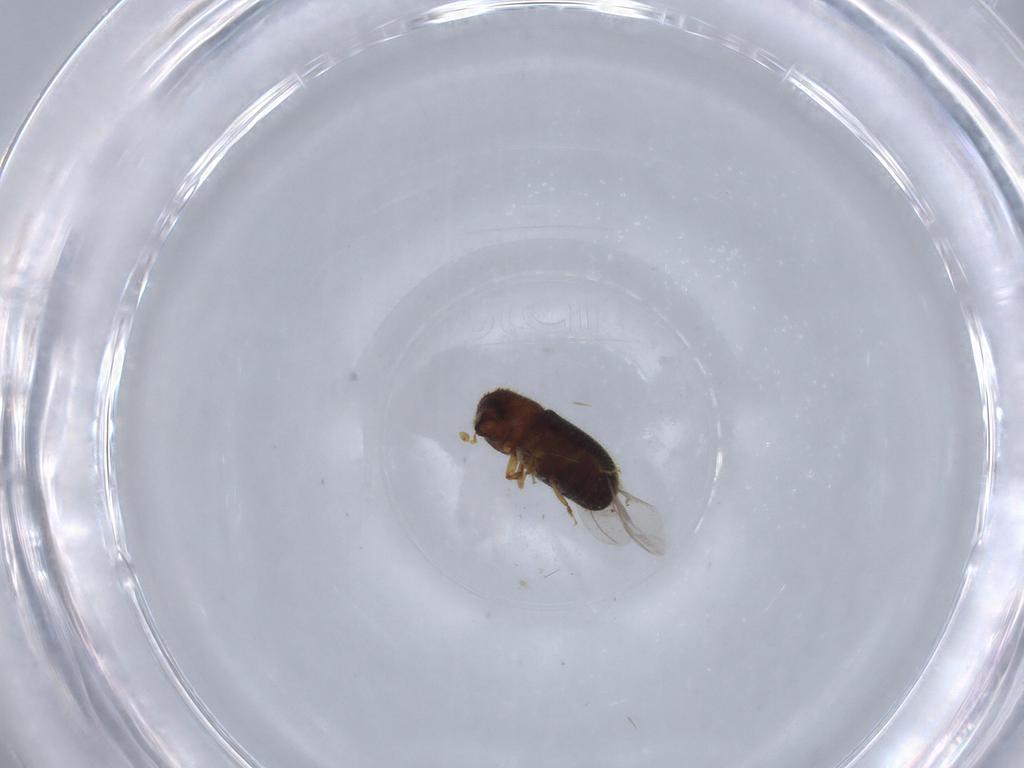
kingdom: Animalia
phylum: Arthropoda
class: Insecta
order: Coleoptera
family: Curculionidae
